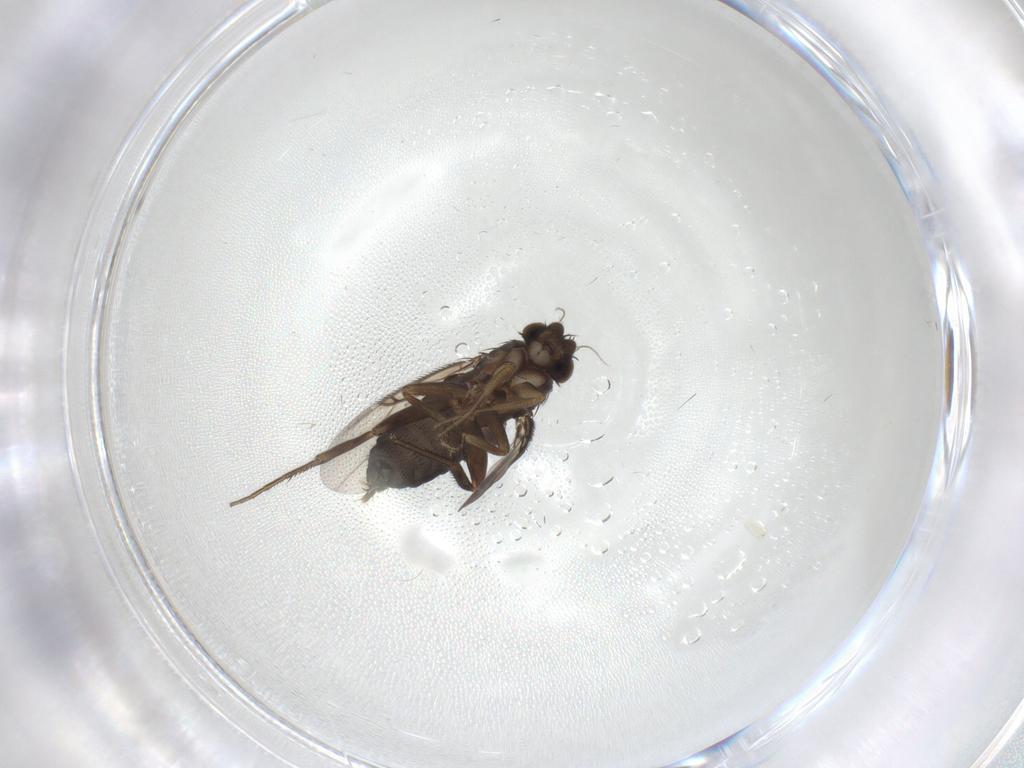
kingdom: Animalia
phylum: Arthropoda
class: Insecta
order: Diptera
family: Phoridae
